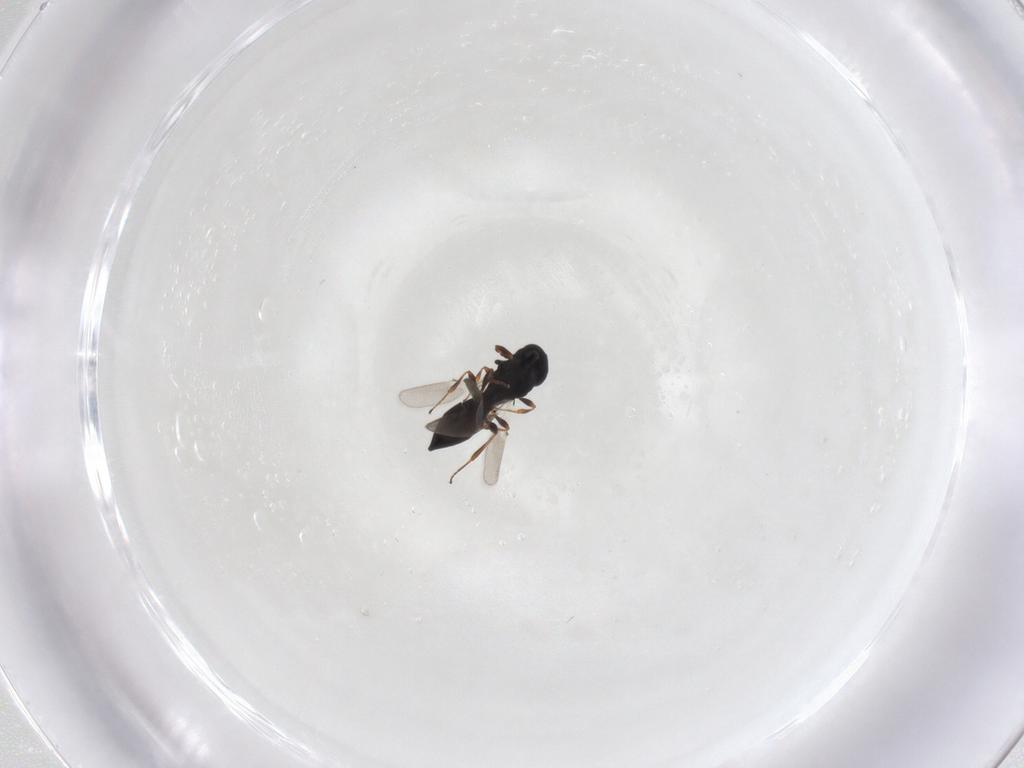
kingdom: Animalia
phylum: Arthropoda
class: Insecta
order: Hymenoptera
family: Platygastridae
